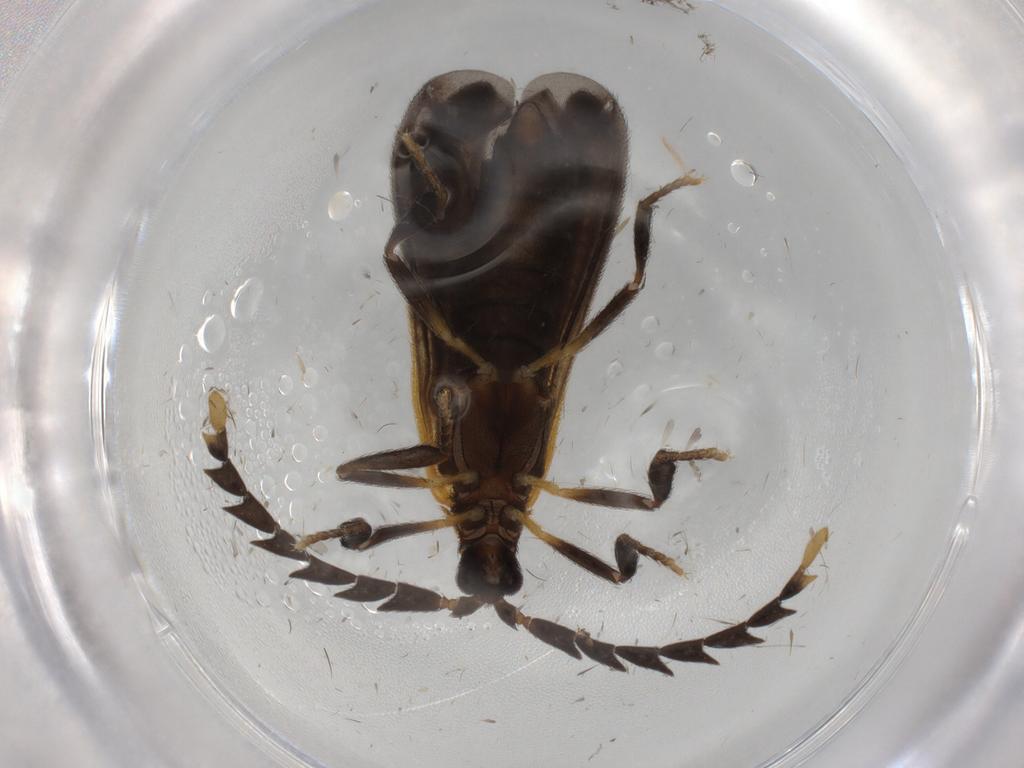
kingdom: Animalia
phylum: Arthropoda
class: Insecta
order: Coleoptera
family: Lycidae
